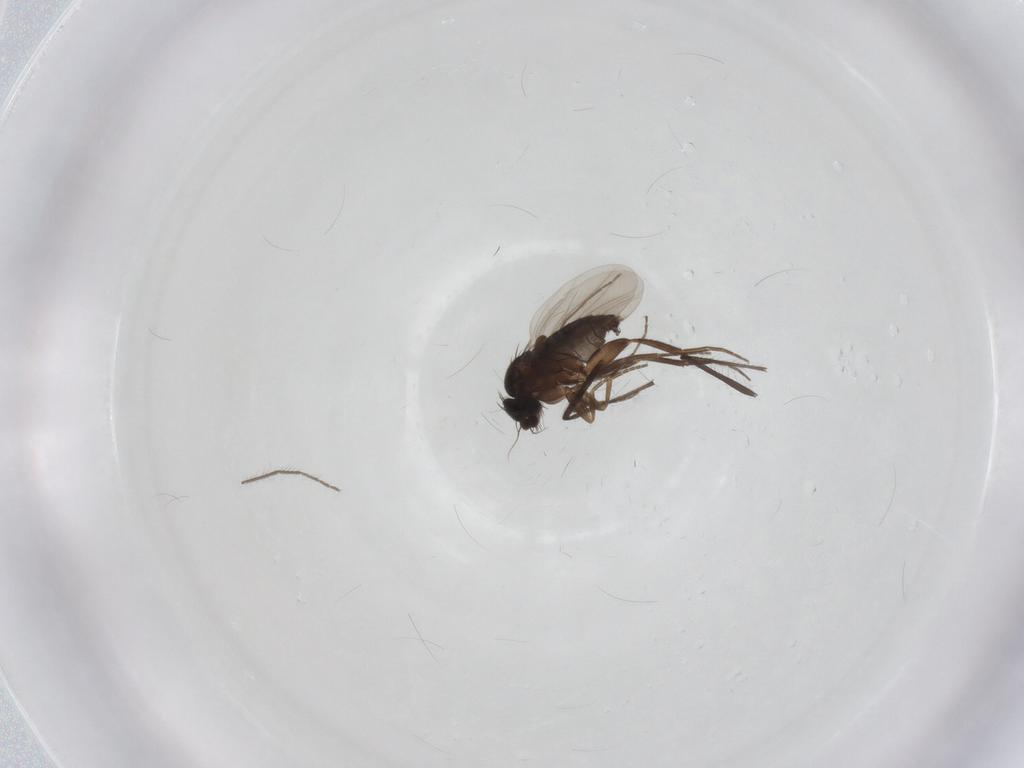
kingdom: Animalia
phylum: Arthropoda
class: Insecta
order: Diptera
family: Chironomidae
